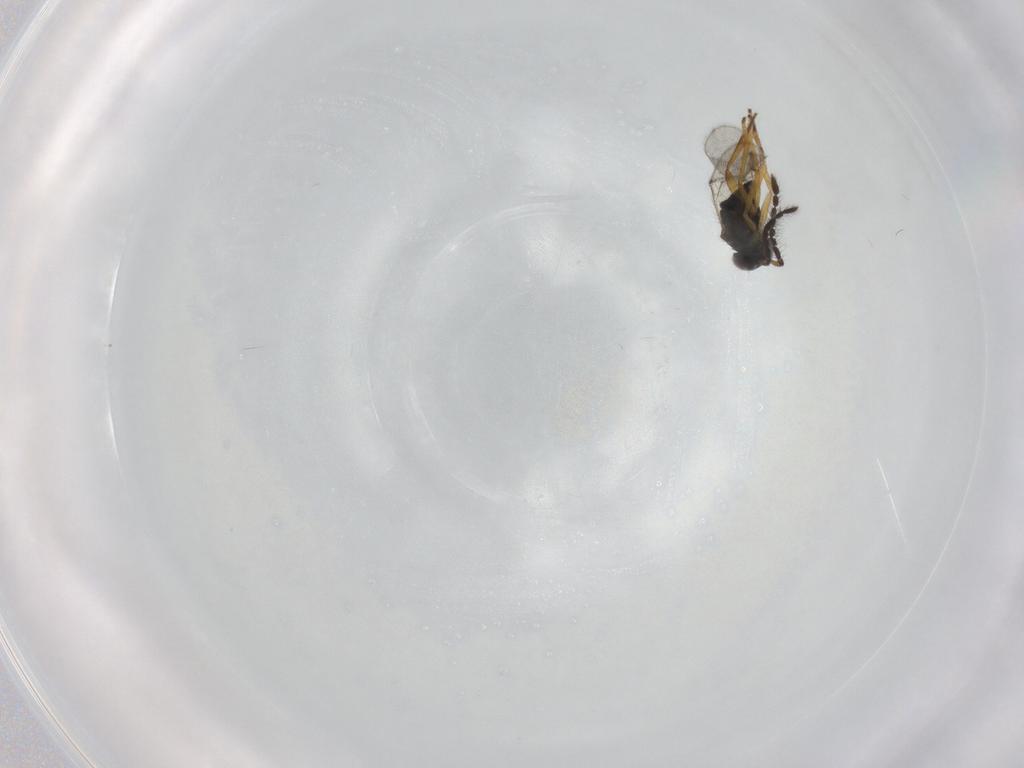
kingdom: Animalia
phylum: Arthropoda
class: Insecta
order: Hymenoptera
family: Encyrtidae
